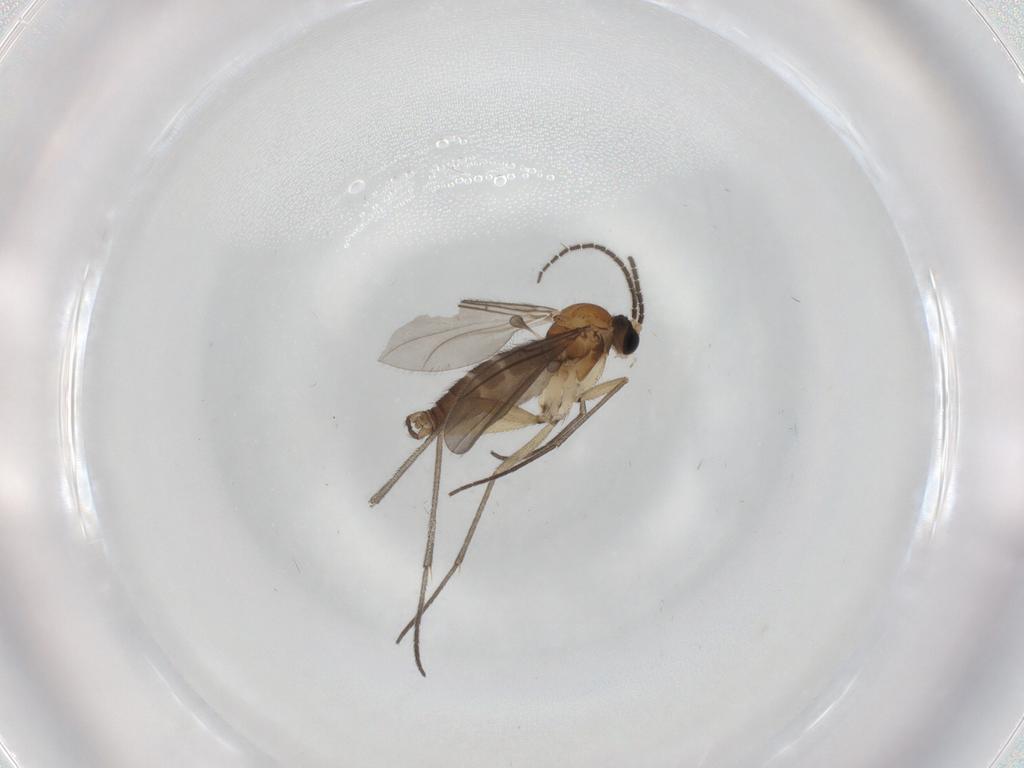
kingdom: Animalia
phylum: Arthropoda
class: Insecta
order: Diptera
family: Sciaridae
